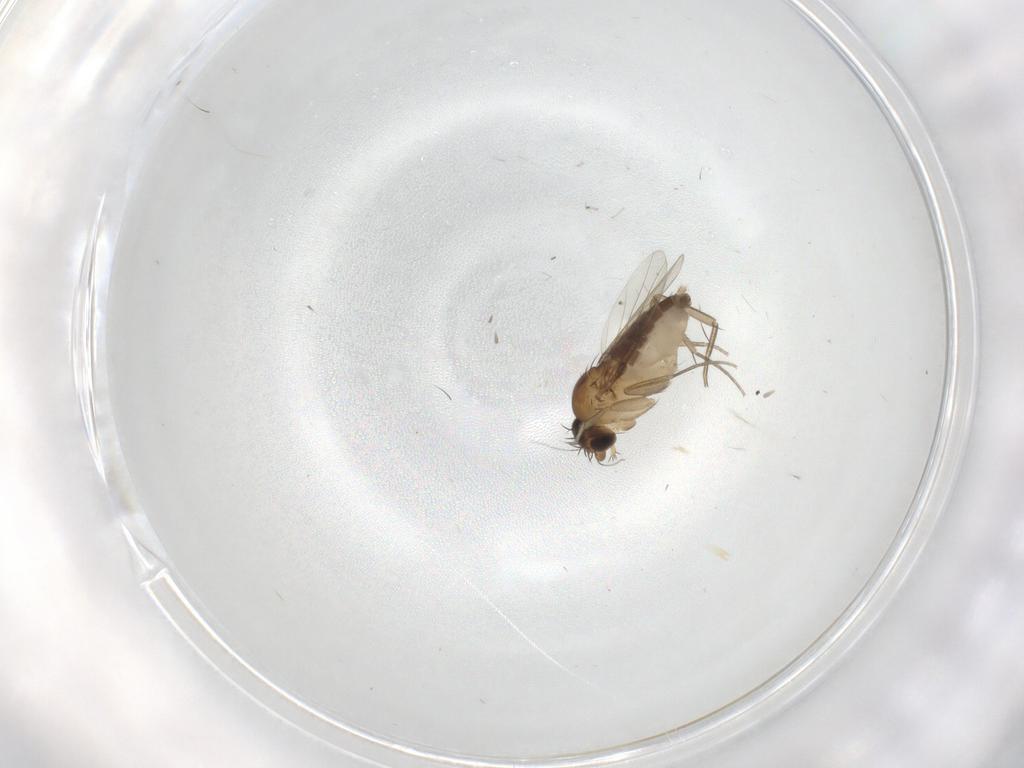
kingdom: Animalia
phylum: Arthropoda
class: Insecta
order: Diptera
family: Phoridae
